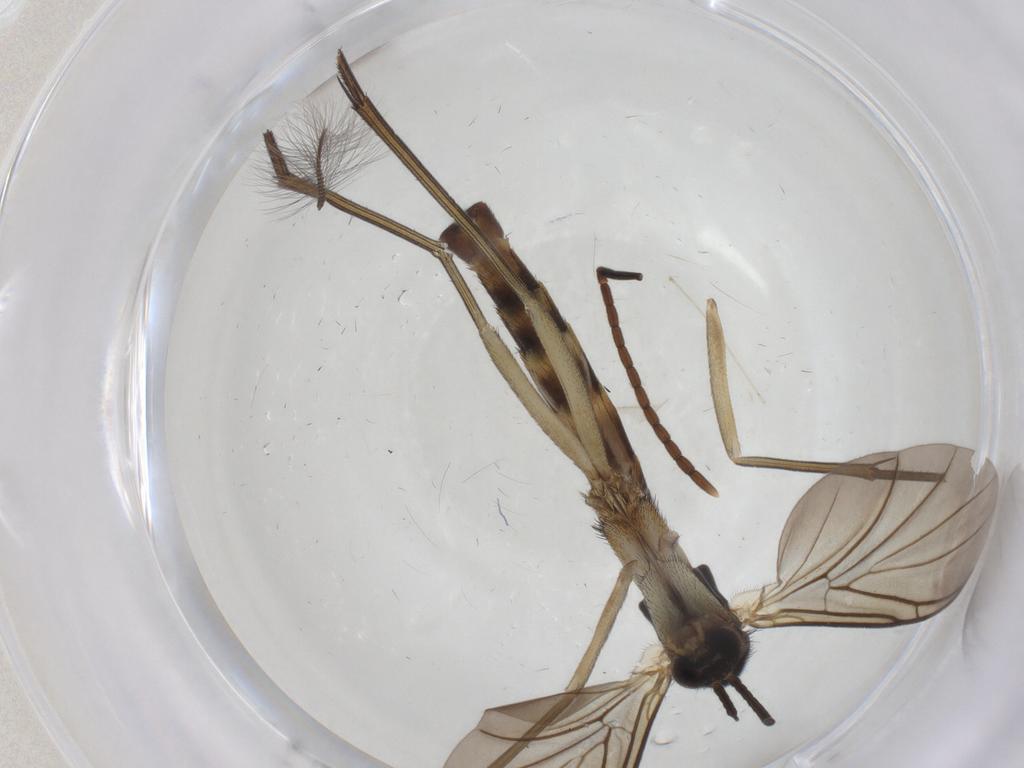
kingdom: Animalia
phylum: Arthropoda
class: Insecta
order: Diptera
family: Keroplatidae
